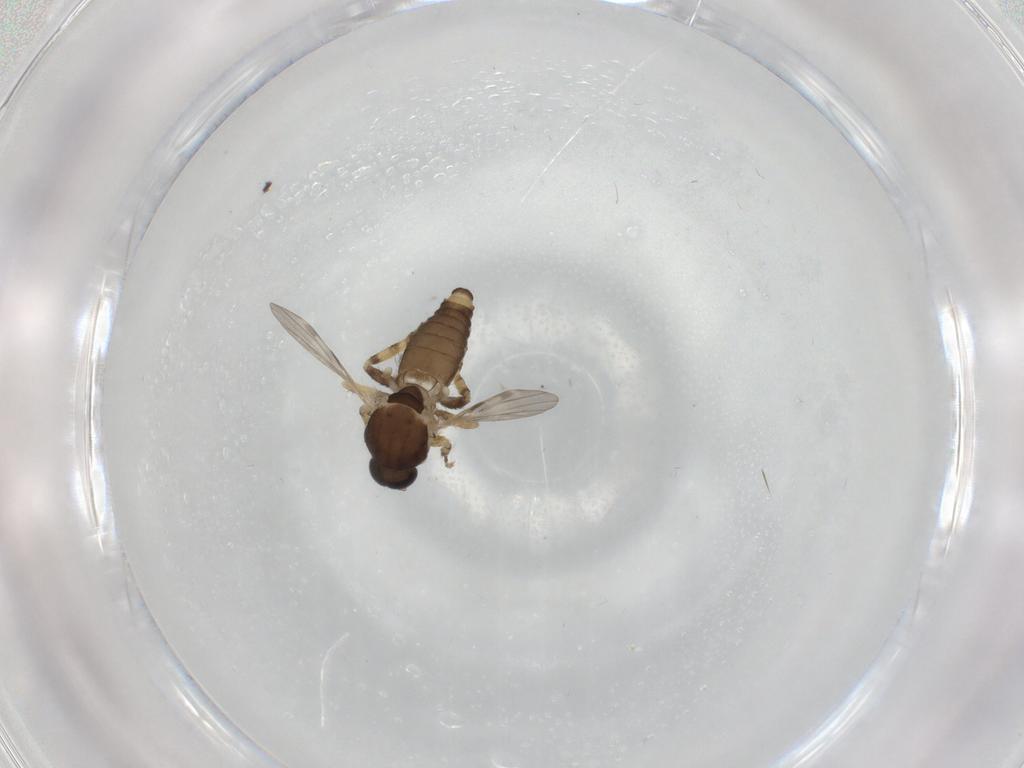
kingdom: Animalia
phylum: Arthropoda
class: Insecta
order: Diptera
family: Ceratopogonidae
